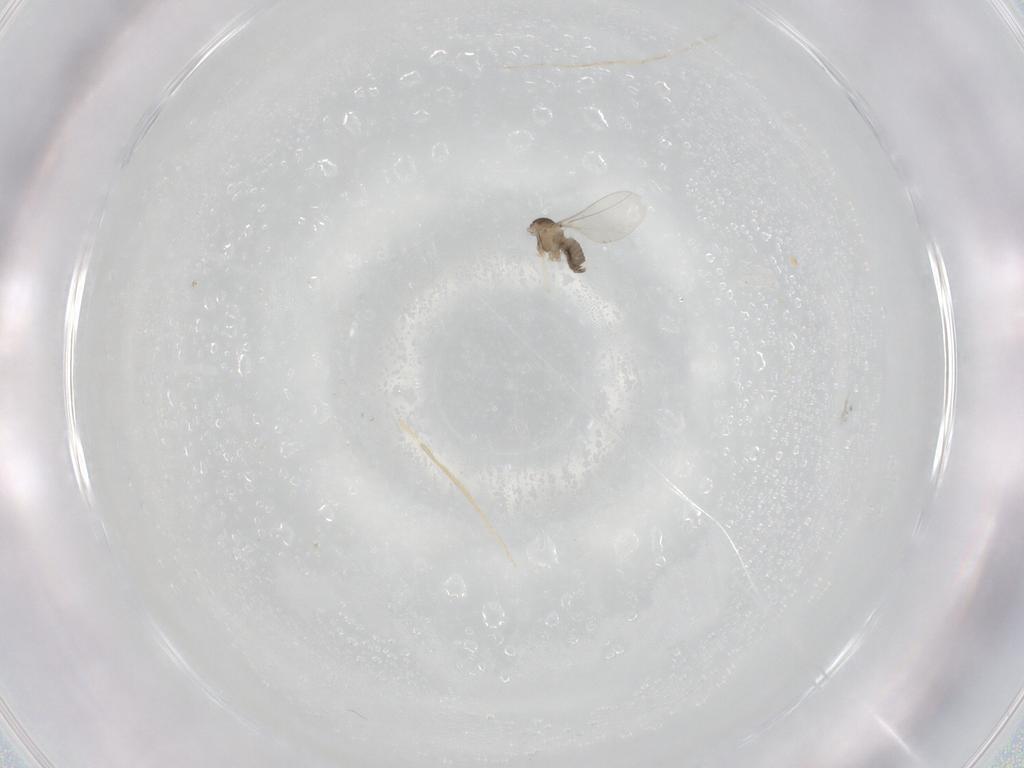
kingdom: Animalia
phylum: Arthropoda
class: Insecta
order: Diptera
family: Cecidomyiidae
